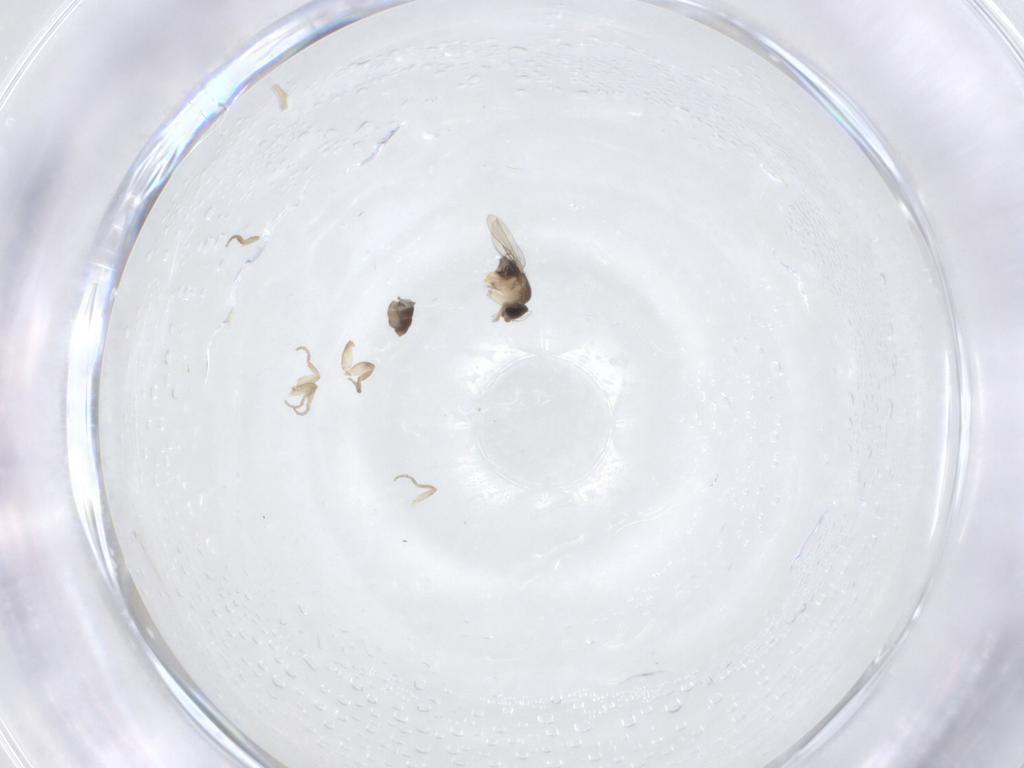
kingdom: Animalia
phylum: Arthropoda
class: Insecta
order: Diptera
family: Phoridae
